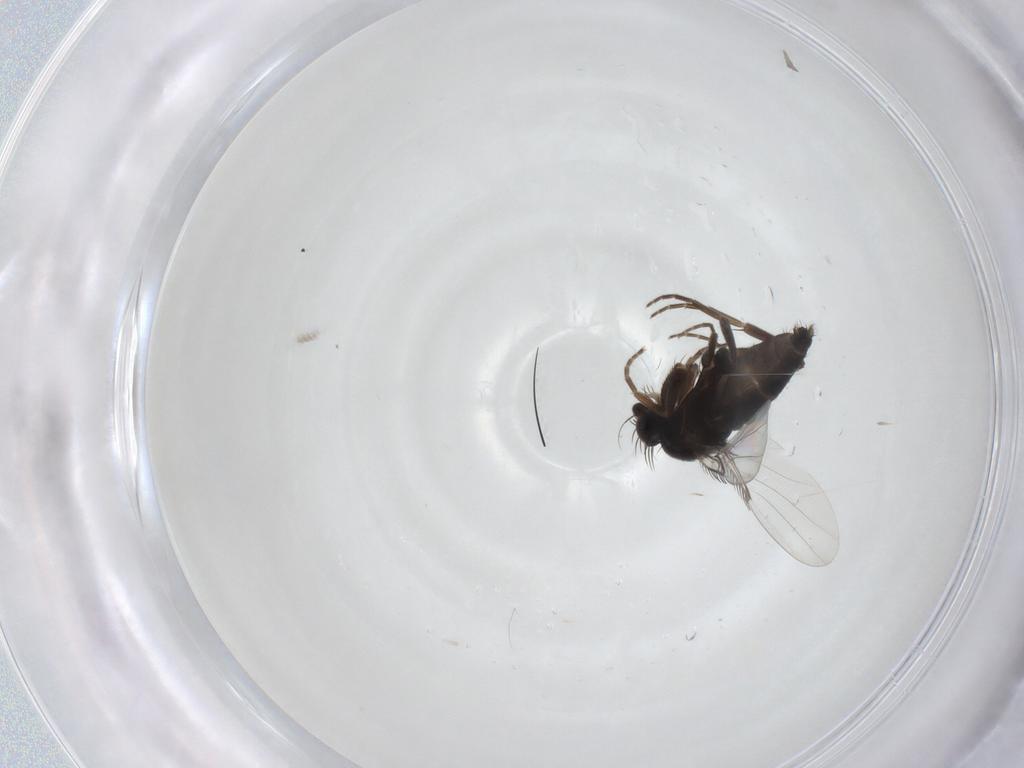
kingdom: Animalia
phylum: Arthropoda
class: Insecta
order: Diptera
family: Phoridae
